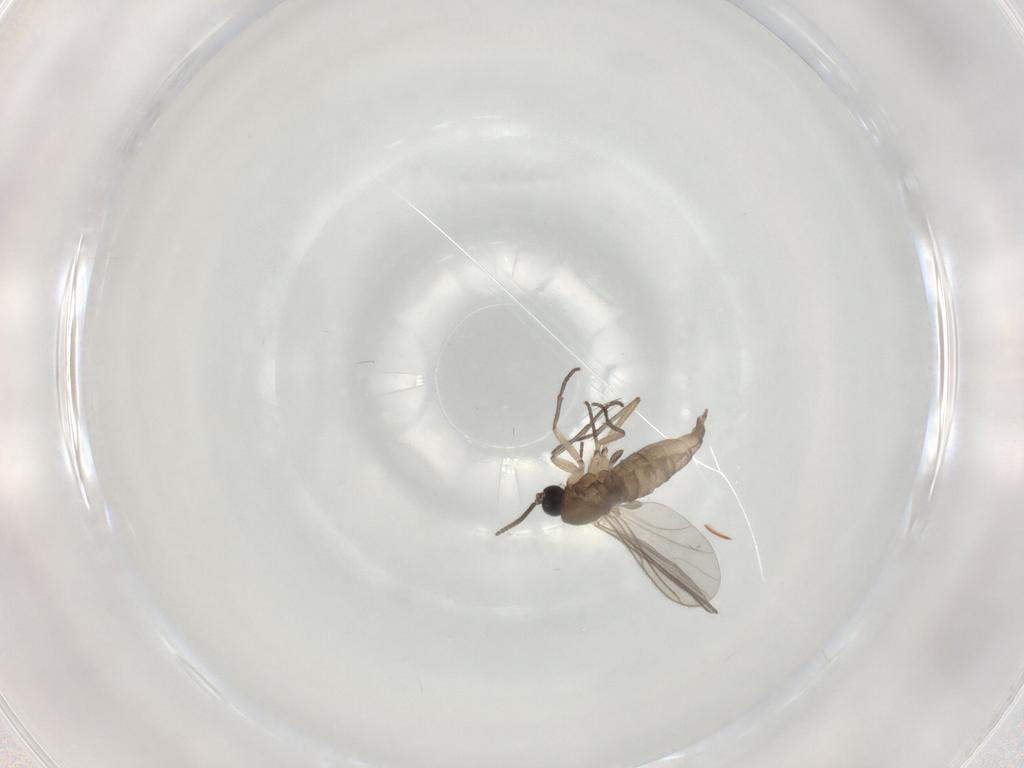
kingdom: Animalia
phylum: Arthropoda
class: Insecta
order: Diptera
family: Sciaridae
